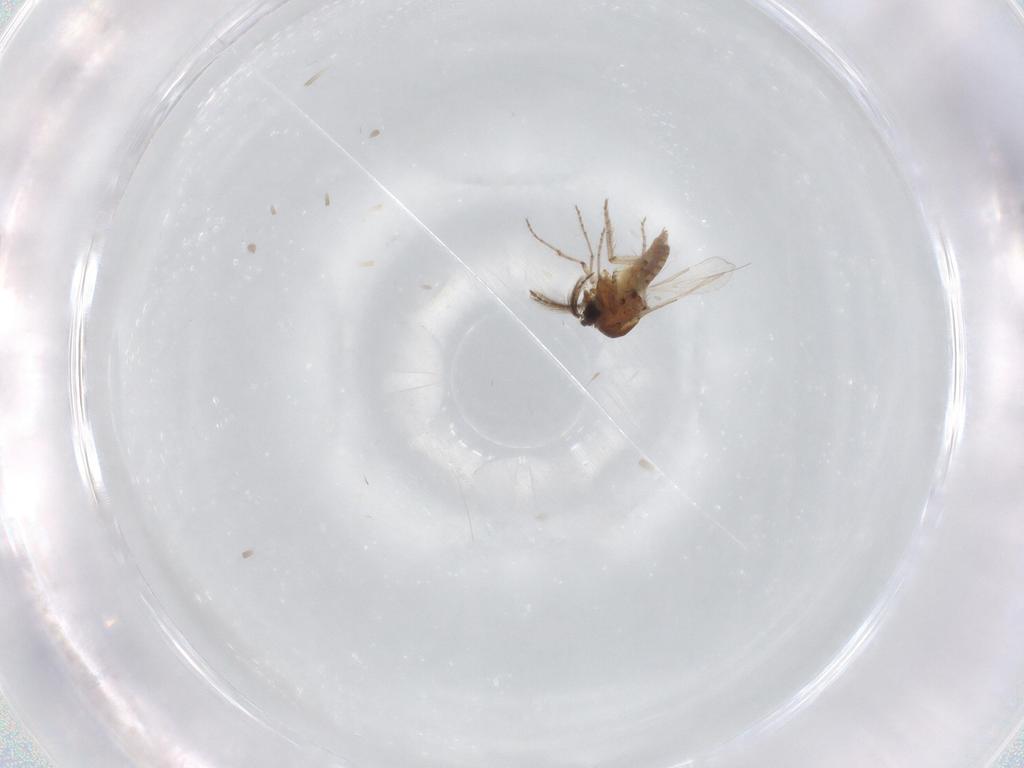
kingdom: Animalia
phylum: Arthropoda
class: Insecta
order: Diptera
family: Ceratopogonidae
